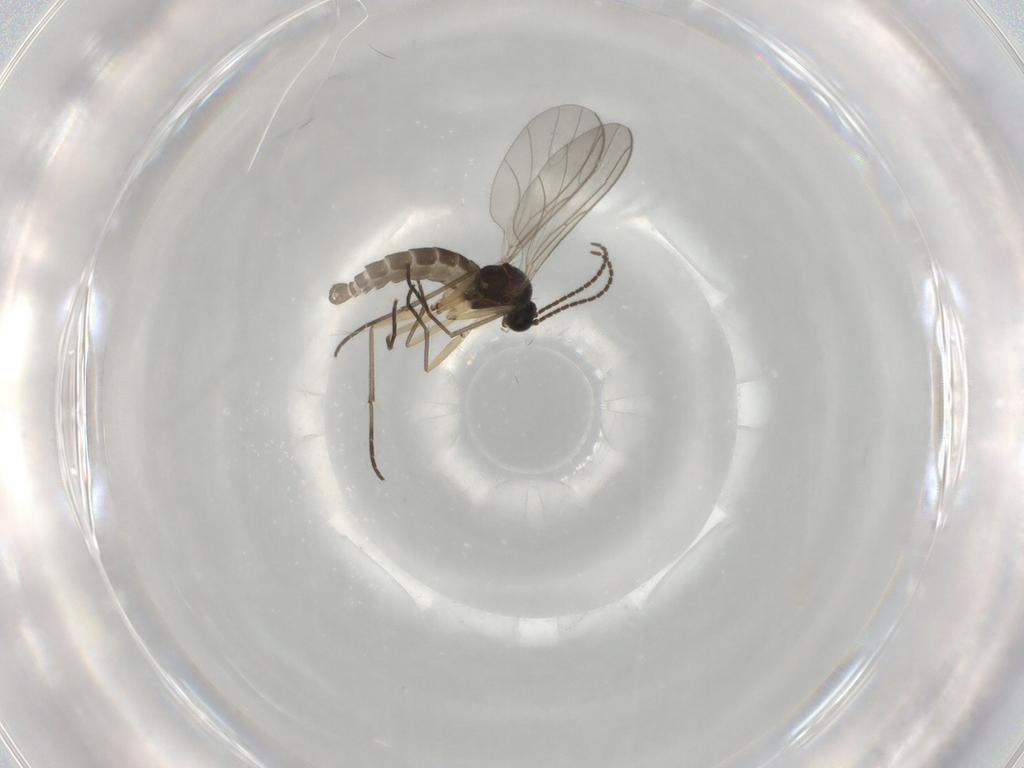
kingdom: Animalia
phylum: Arthropoda
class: Insecta
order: Diptera
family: Sciaridae
